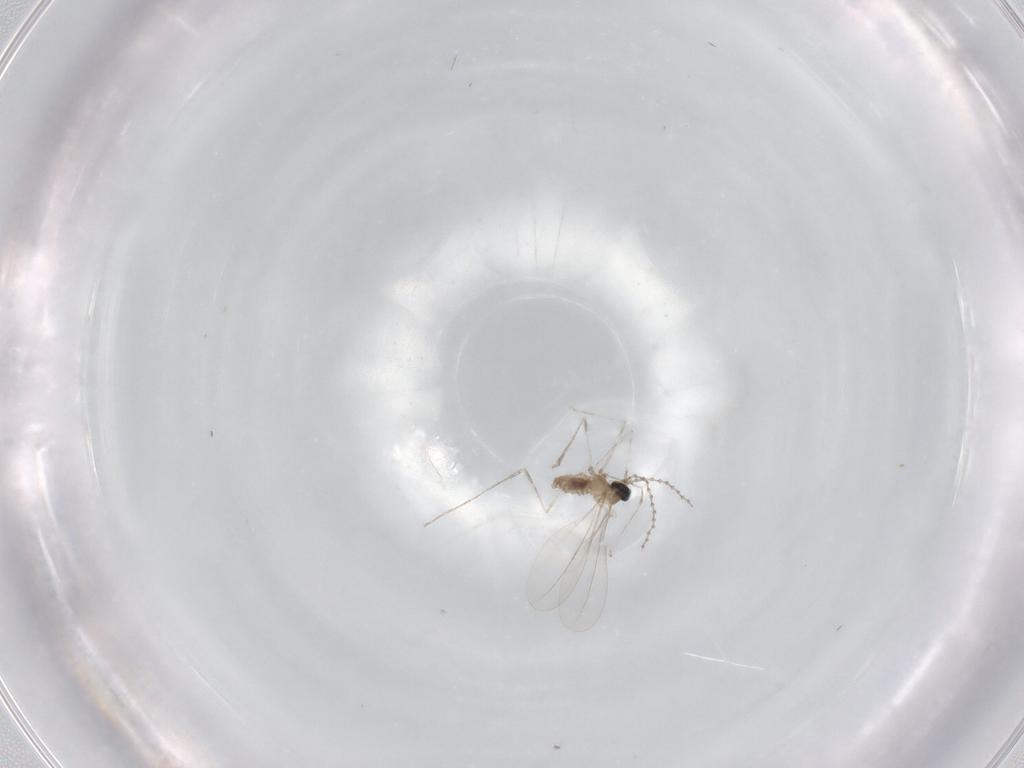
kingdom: Animalia
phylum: Arthropoda
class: Insecta
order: Diptera
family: Cecidomyiidae
